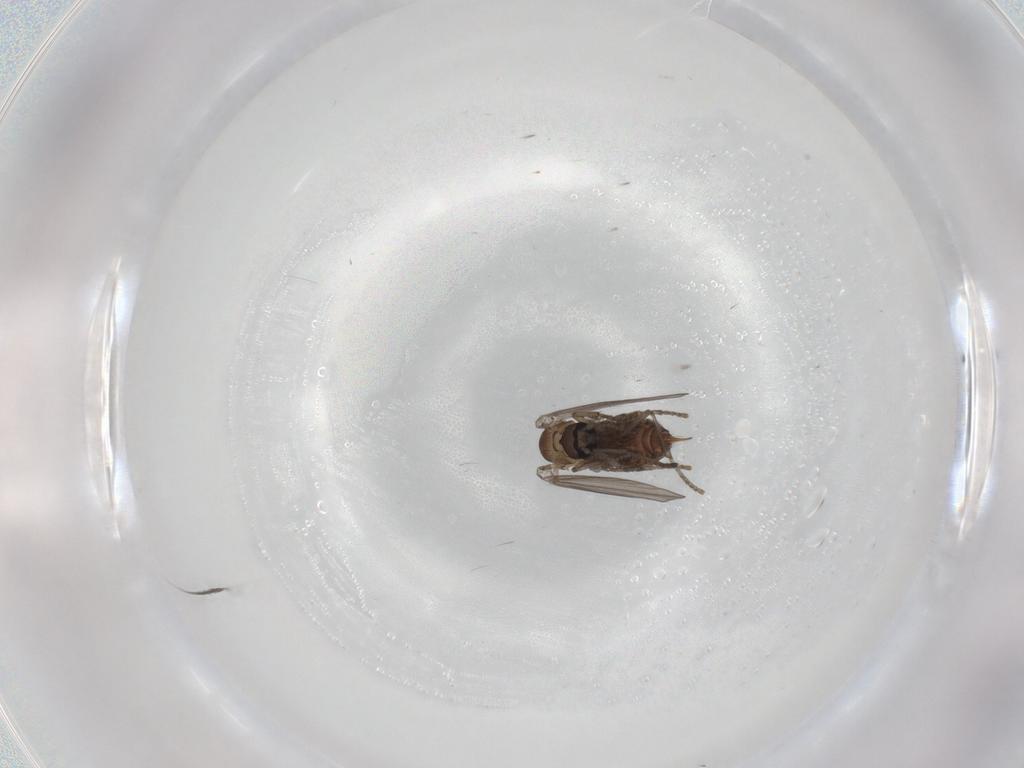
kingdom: Animalia
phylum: Arthropoda
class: Insecta
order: Diptera
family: Psychodidae
